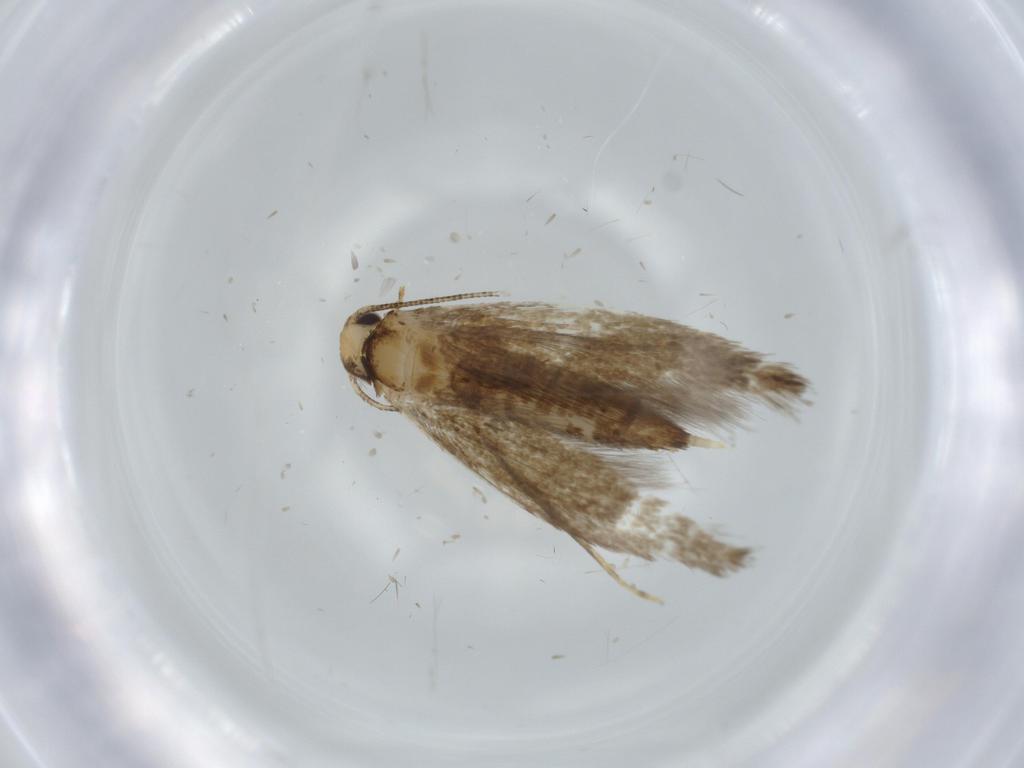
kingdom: Animalia
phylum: Arthropoda
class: Insecta
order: Lepidoptera
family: Tineidae
